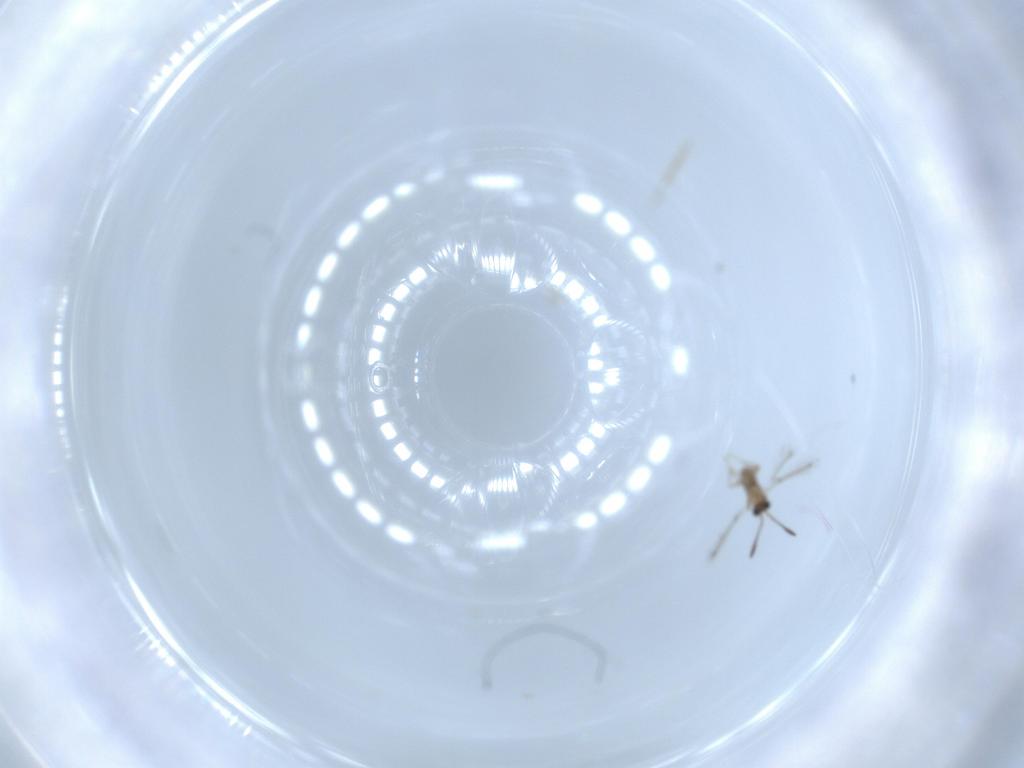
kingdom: Animalia
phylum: Arthropoda
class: Insecta
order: Hymenoptera
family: Mymaridae
